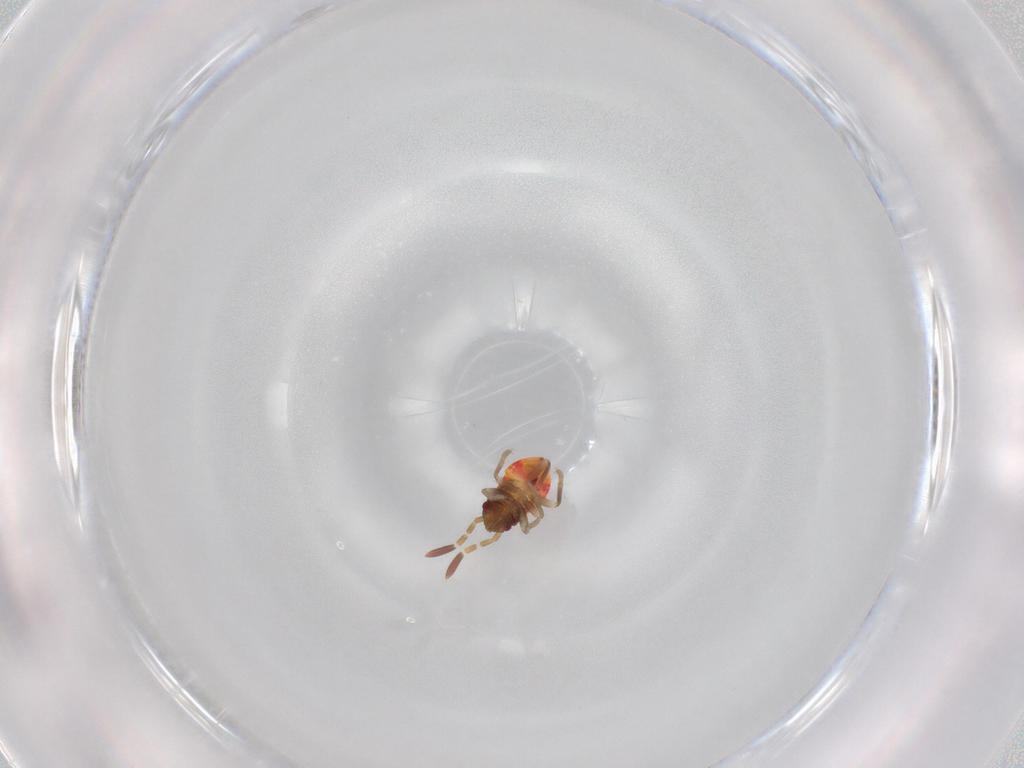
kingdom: Animalia
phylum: Arthropoda
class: Insecta
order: Hemiptera
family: Rhyparochromidae
